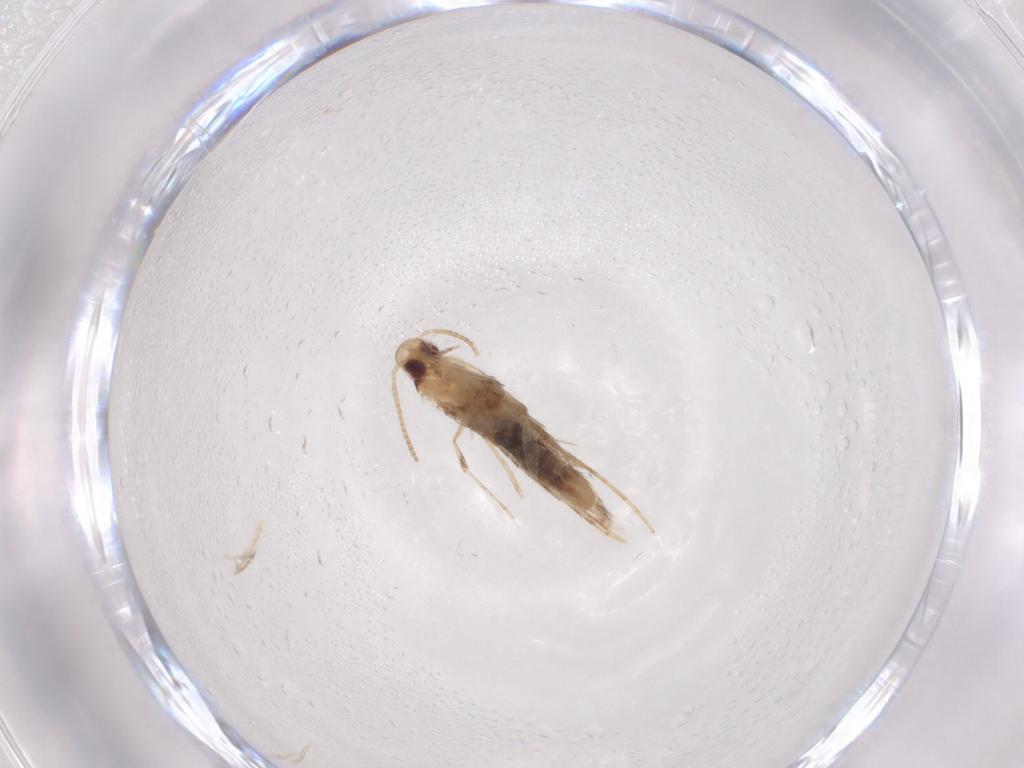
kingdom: Animalia
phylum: Arthropoda
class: Insecta
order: Lepidoptera
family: Gracillariidae
